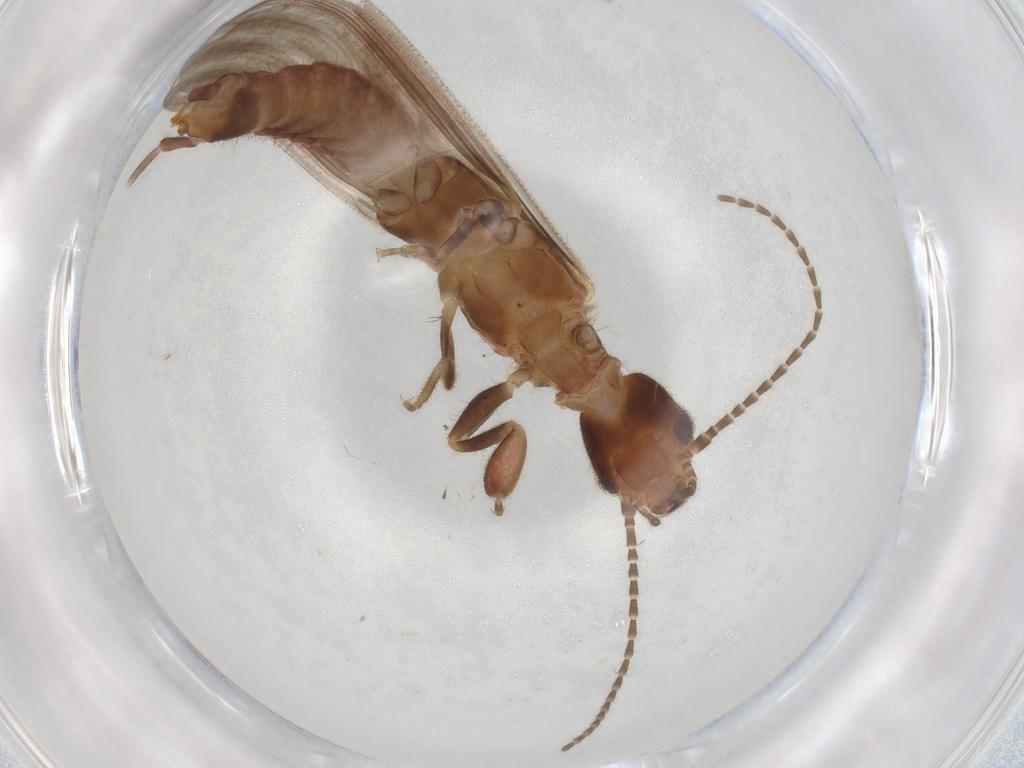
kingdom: Animalia
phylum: Arthropoda
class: Insecta
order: Embioptera
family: Oligotomidae
